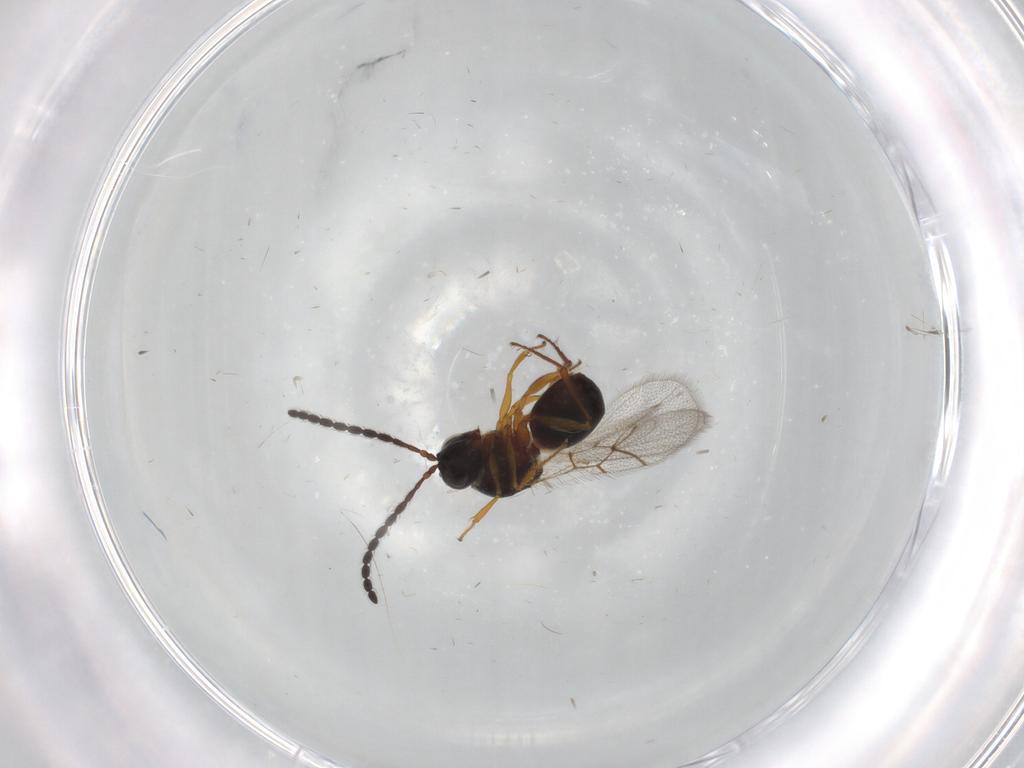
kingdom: Animalia
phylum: Arthropoda
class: Insecta
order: Hymenoptera
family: Figitidae
